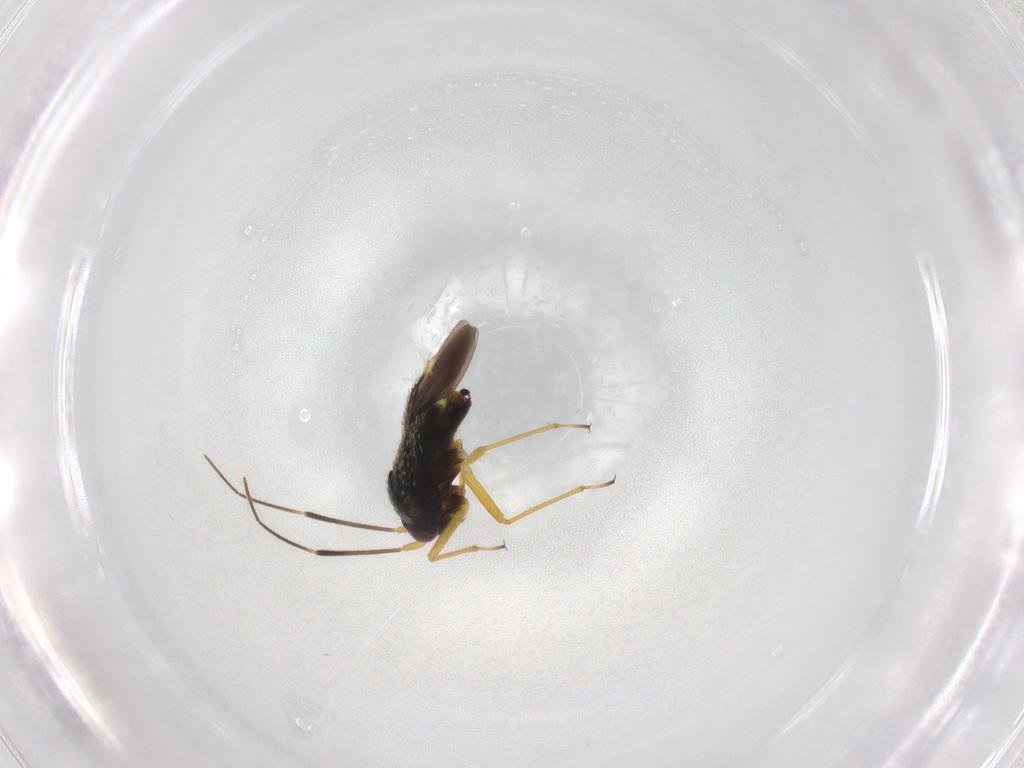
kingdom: Animalia
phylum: Arthropoda
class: Insecta
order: Hemiptera
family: Miridae
